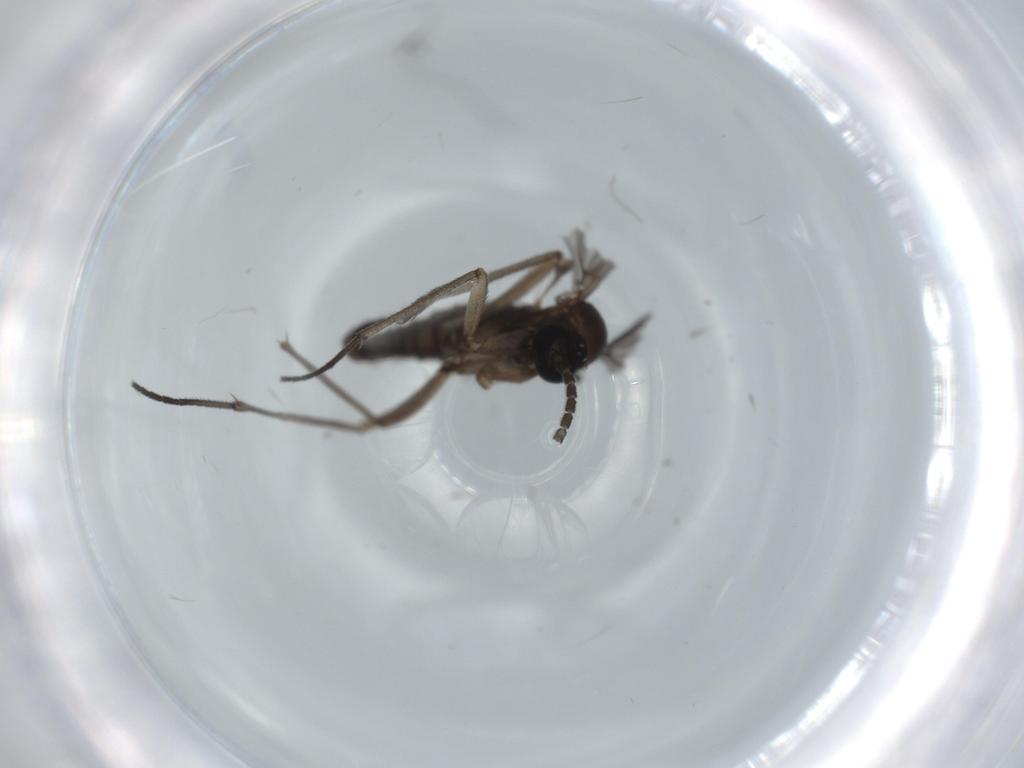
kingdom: Animalia
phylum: Arthropoda
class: Insecta
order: Diptera
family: Sciaridae
